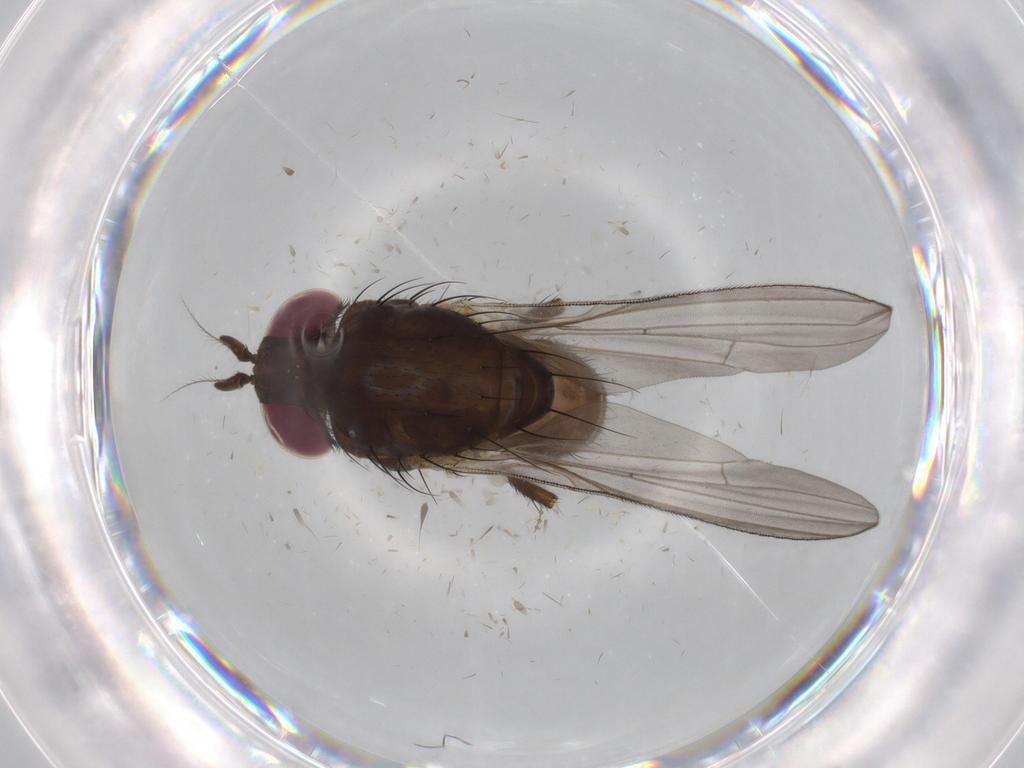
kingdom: Animalia
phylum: Arthropoda
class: Insecta
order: Diptera
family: Cecidomyiidae
